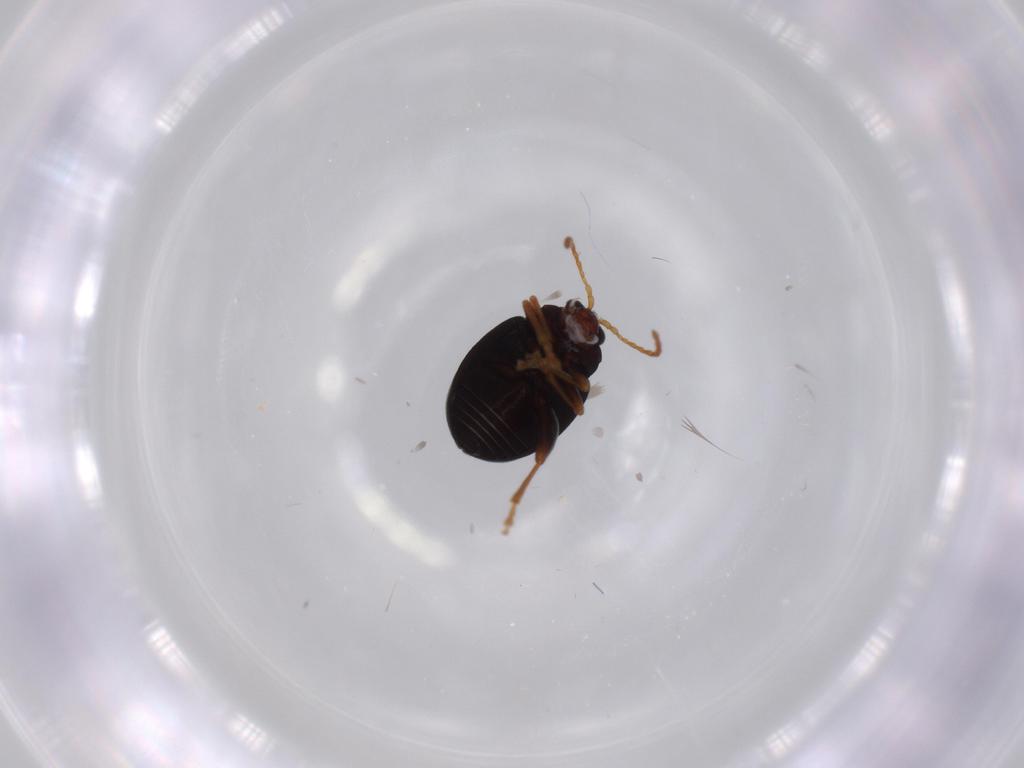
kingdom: Animalia
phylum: Arthropoda
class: Insecta
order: Coleoptera
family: Chrysomelidae
